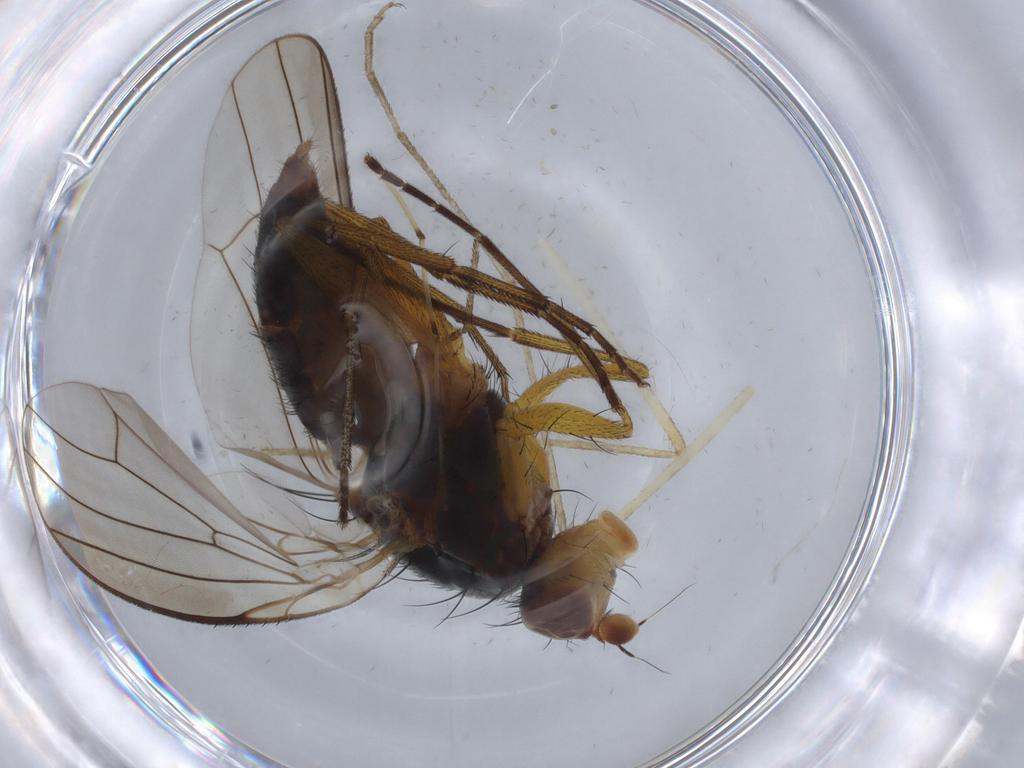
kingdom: Animalia
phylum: Arthropoda
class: Insecta
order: Diptera
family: Heleomyzidae
